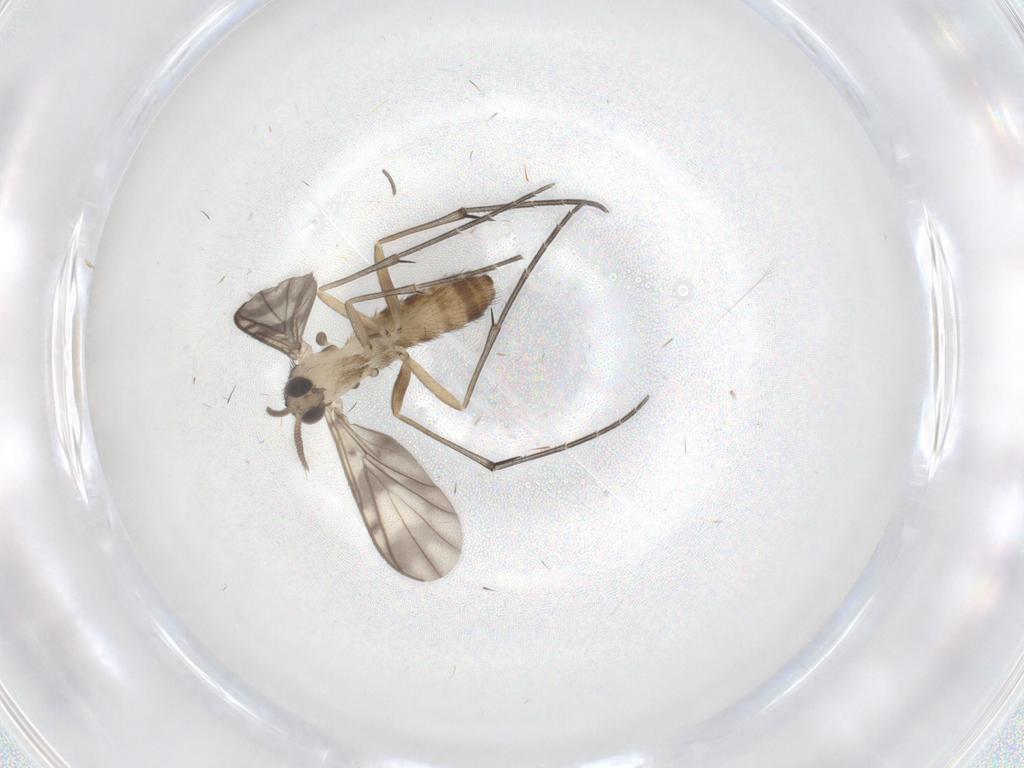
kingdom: Animalia
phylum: Arthropoda
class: Insecta
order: Diptera
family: Keroplatidae
